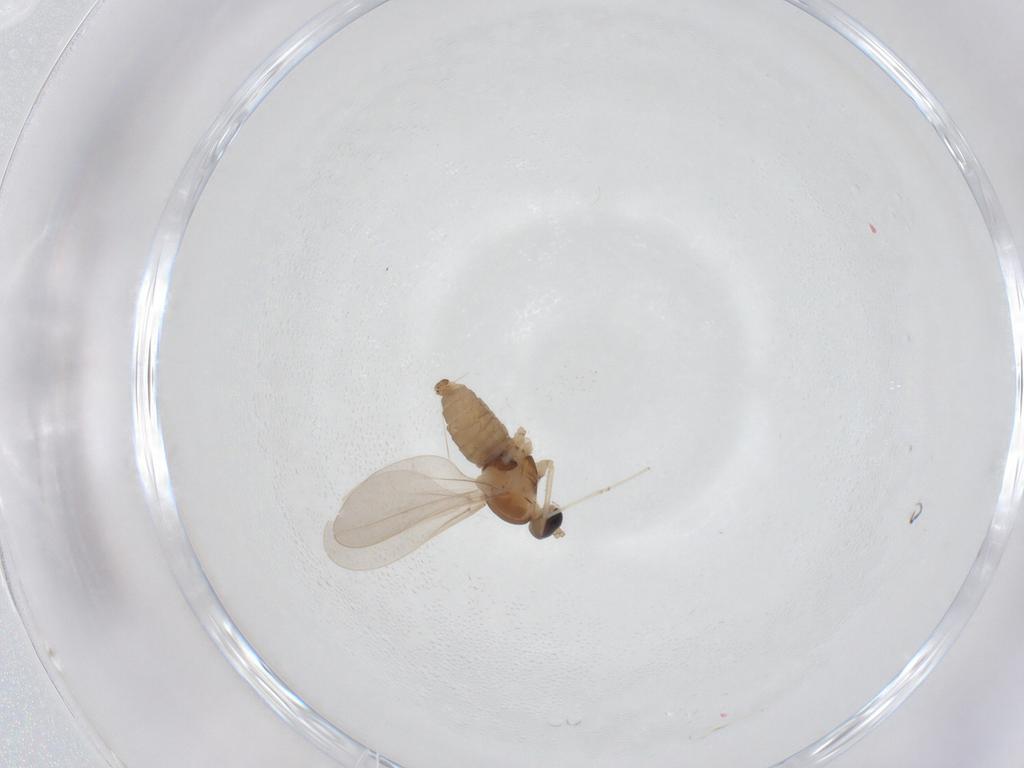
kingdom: Animalia
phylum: Arthropoda
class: Insecta
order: Diptera
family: Cecidomyiidae
